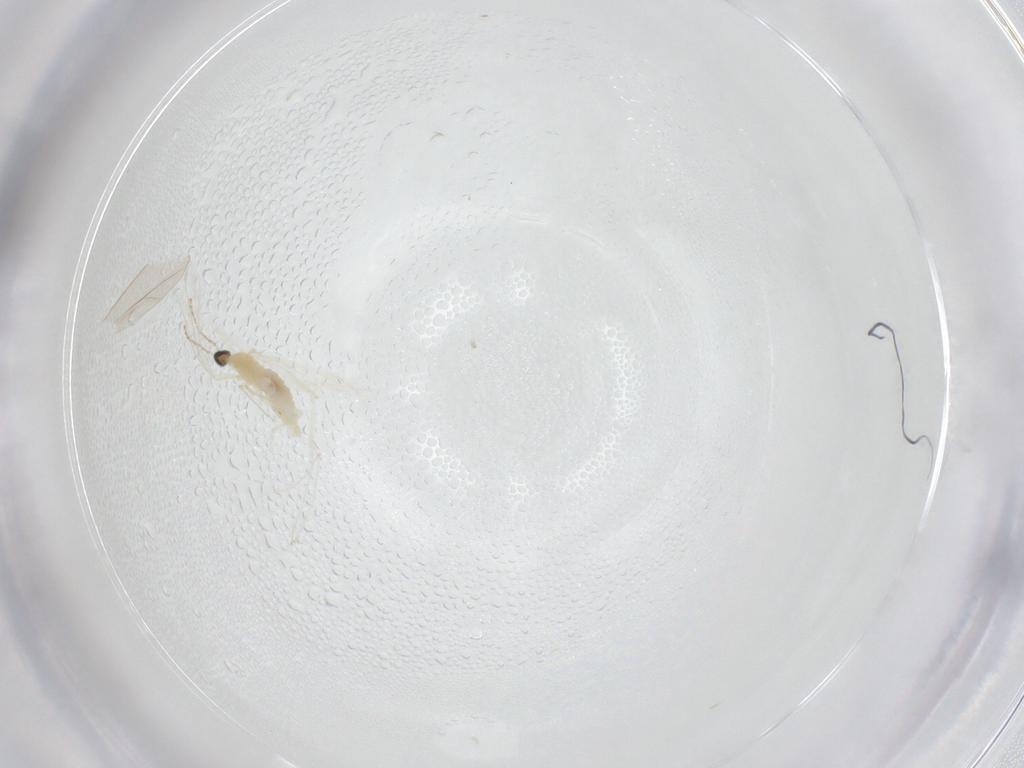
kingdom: Animalia
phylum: Arthropoda
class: Insecta
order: Diptera
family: Cecidomyiidae
